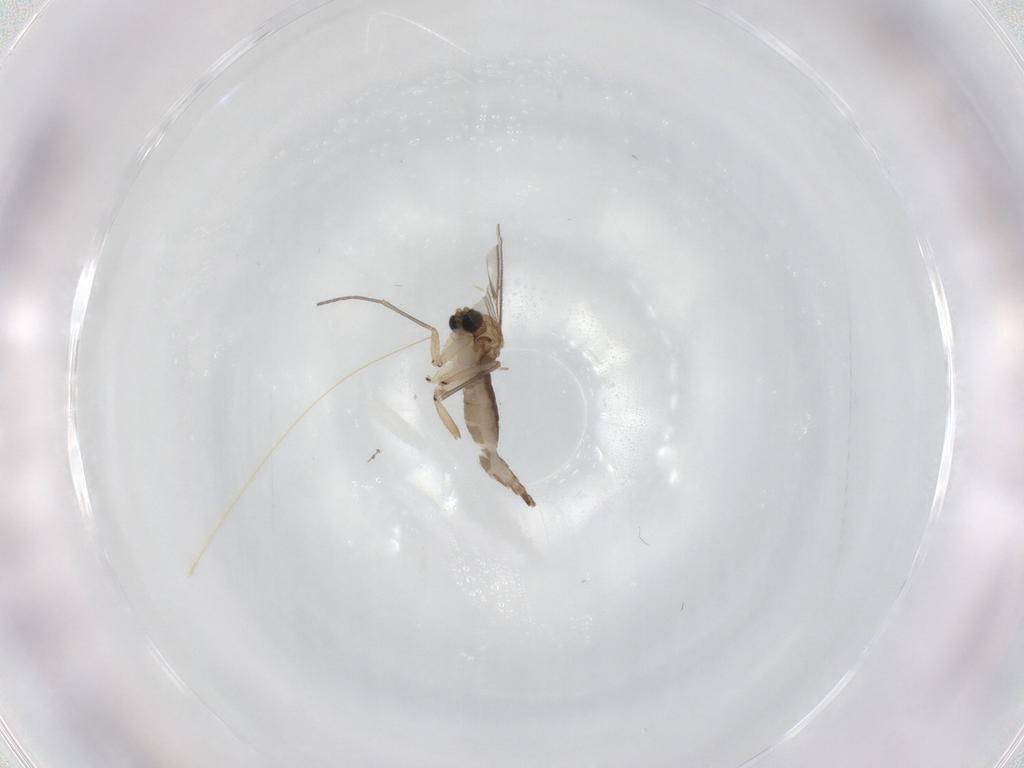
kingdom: Animalia
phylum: Arthropoda
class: Insecta
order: Diptera
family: Sciaridae
